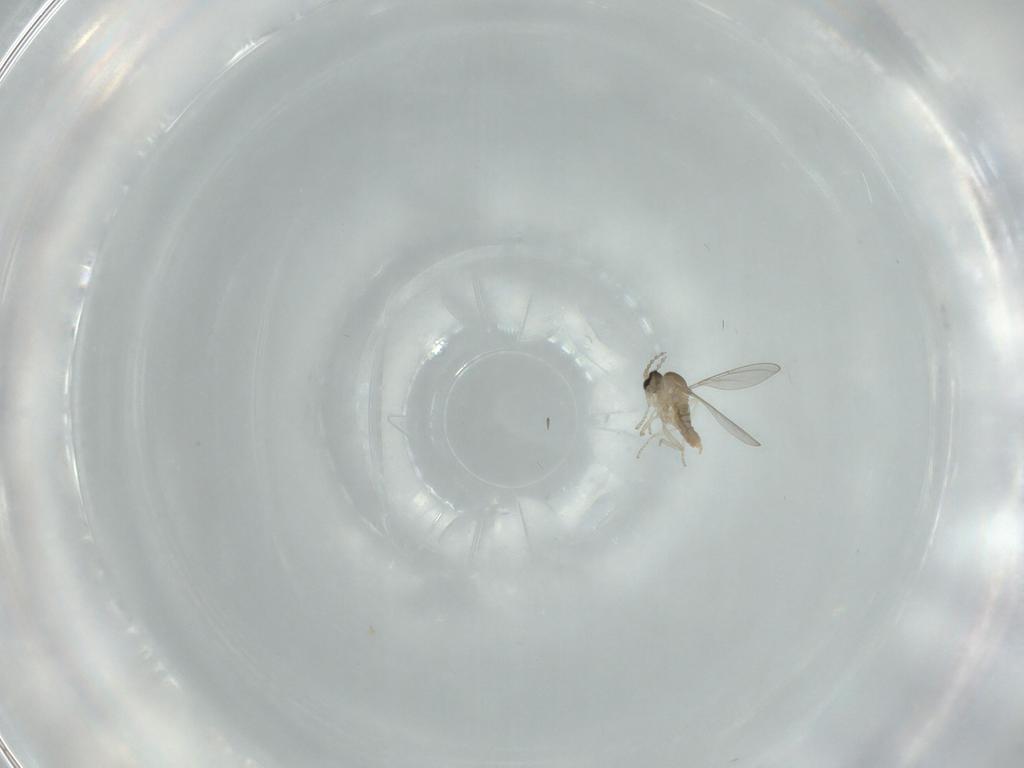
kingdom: Animalia
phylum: Arthropoda
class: Insecta
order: Diptera
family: Cecidomyiidae
